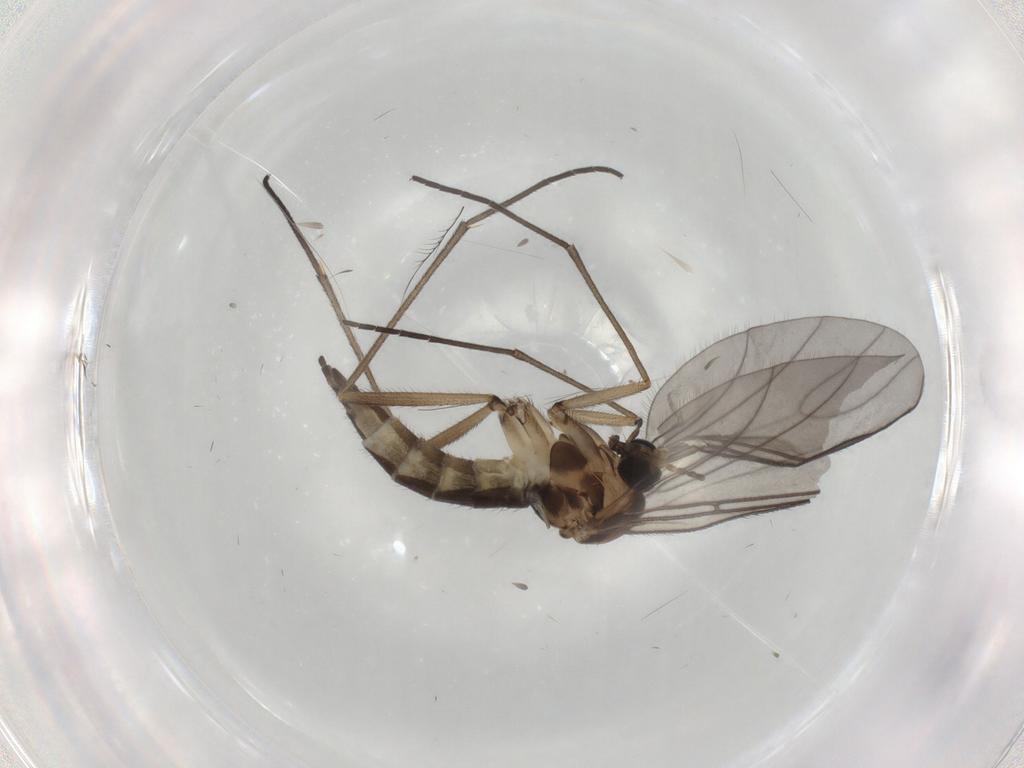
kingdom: Animalia
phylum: Arthropoda
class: Insecta
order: Diptera
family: Sciaridae
